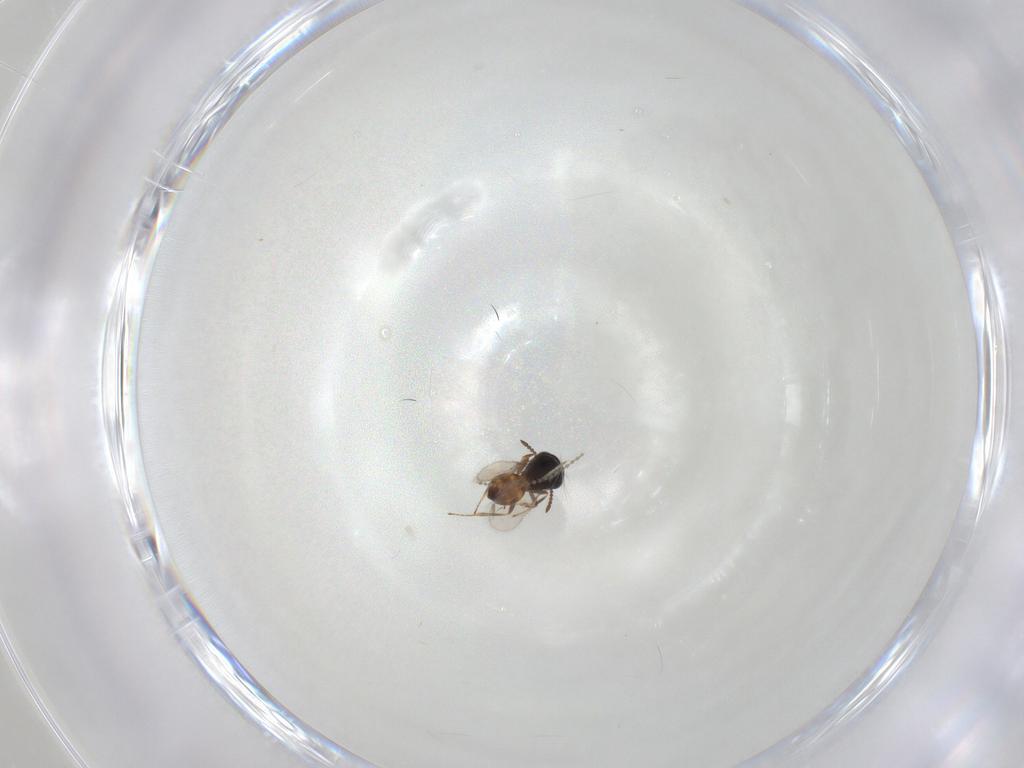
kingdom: Animalia
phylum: Arthropoda
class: Insecta
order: Hymenoptera
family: Scelionidae
